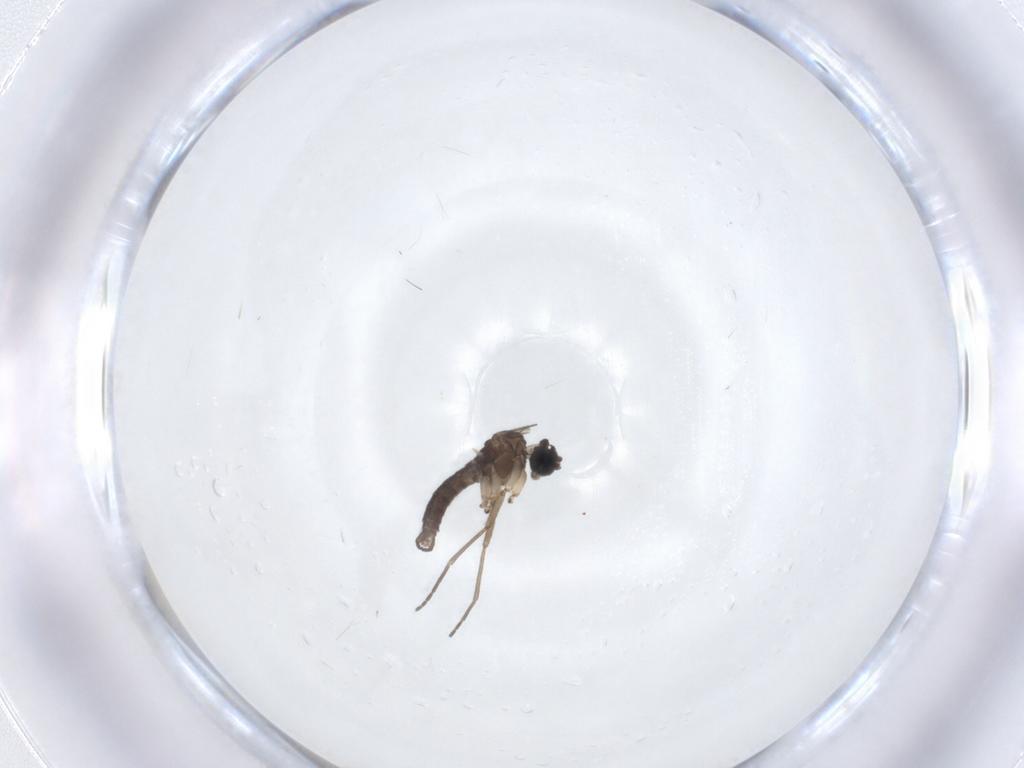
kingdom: Animalia
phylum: Arthropoda
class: Insecta
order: Diptera
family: Sciaridae
